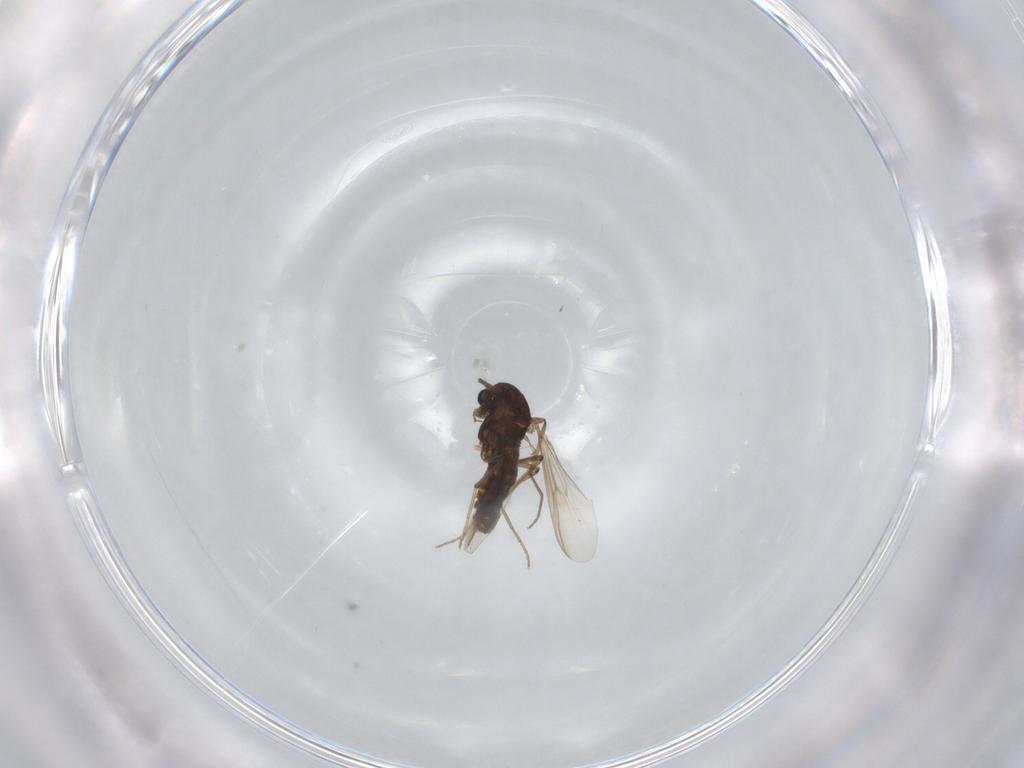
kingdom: Animalia
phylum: Arthropoda
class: Insecta
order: Diptera
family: Chironomidae
